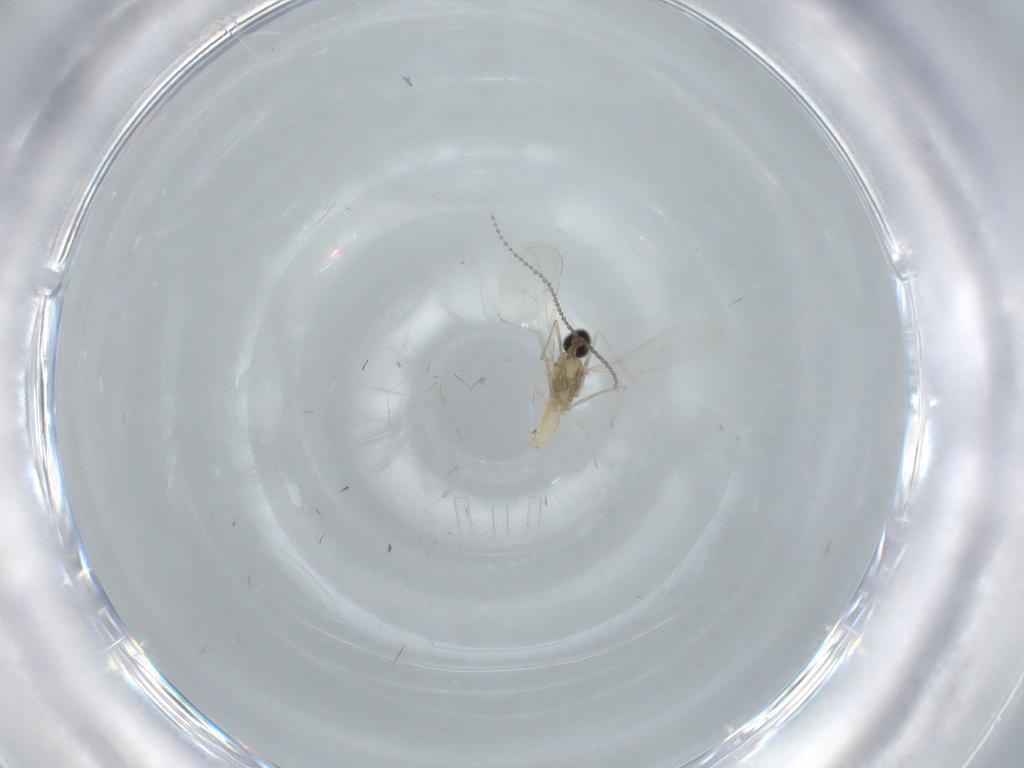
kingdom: Animalia
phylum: Arthropoda
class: Insecta
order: Diptera
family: Cecidomyiidae
